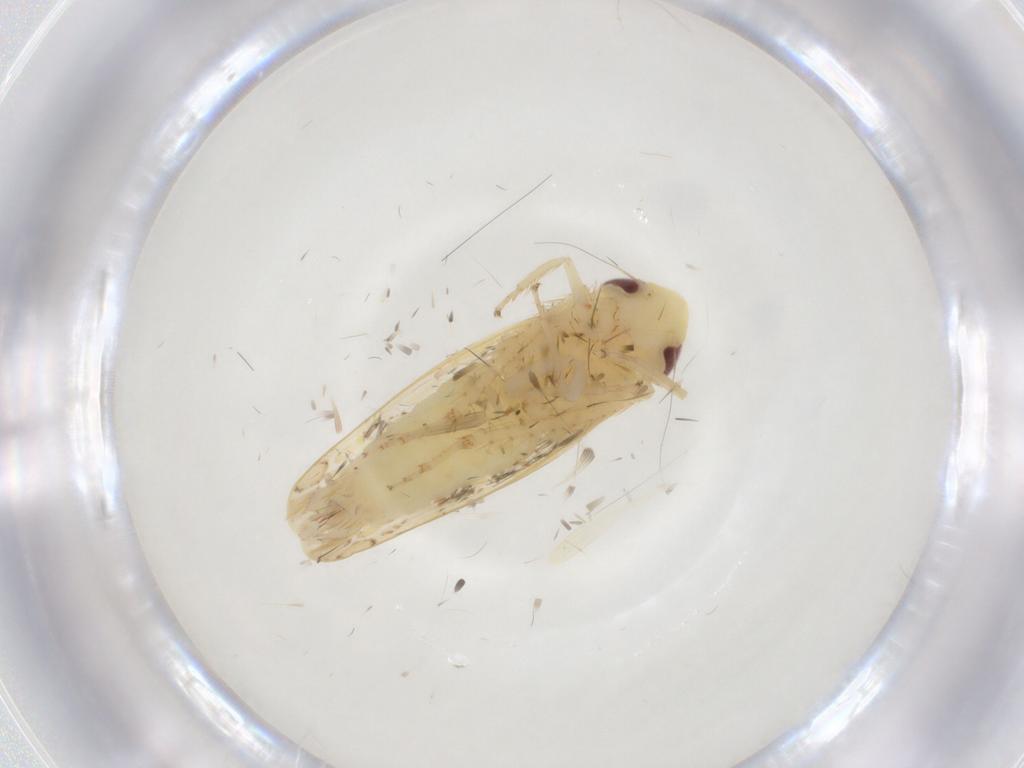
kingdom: Animalia
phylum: Arthropoda
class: Insecta
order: Hemiptera
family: Cicadellidae
